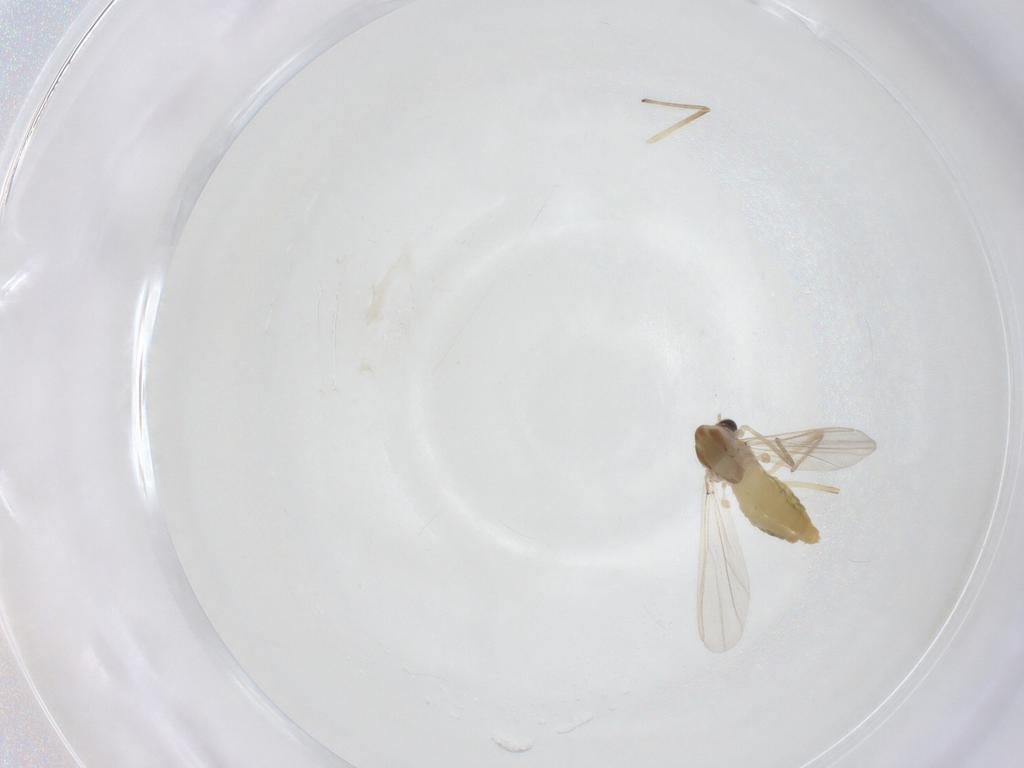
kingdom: Animalia
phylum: Arthropoda
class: Insecta
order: Diptera
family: Chironomidae
